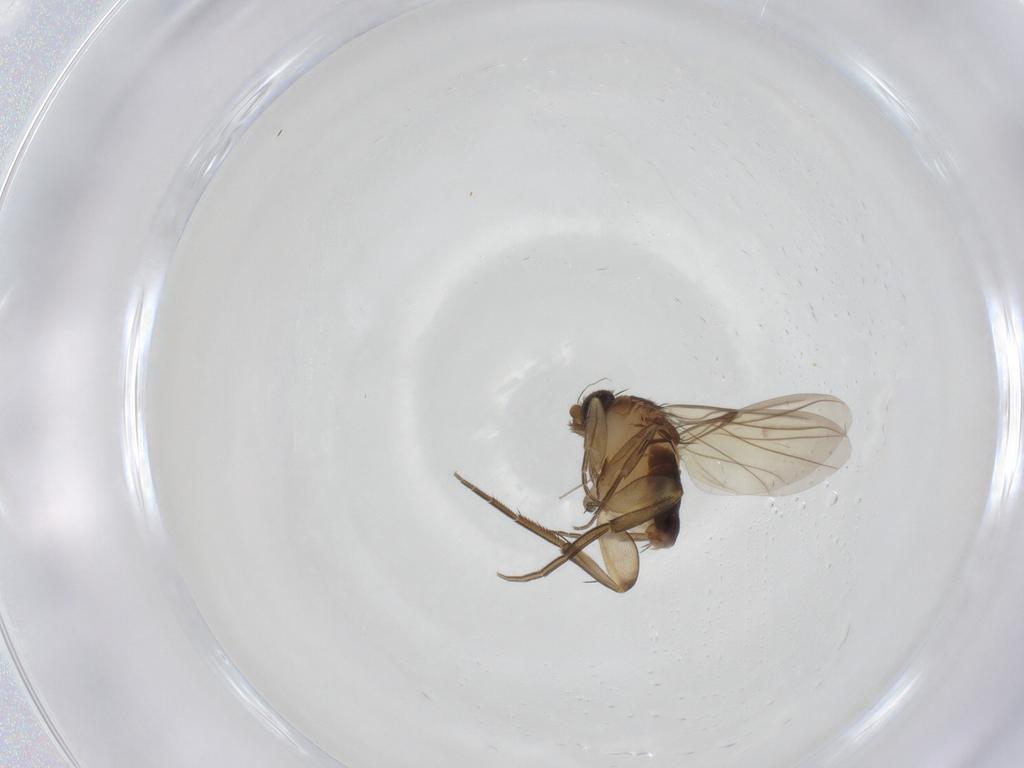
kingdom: Animalia
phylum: Arthropoda
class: Insecta
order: Diptera
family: Phoridae
